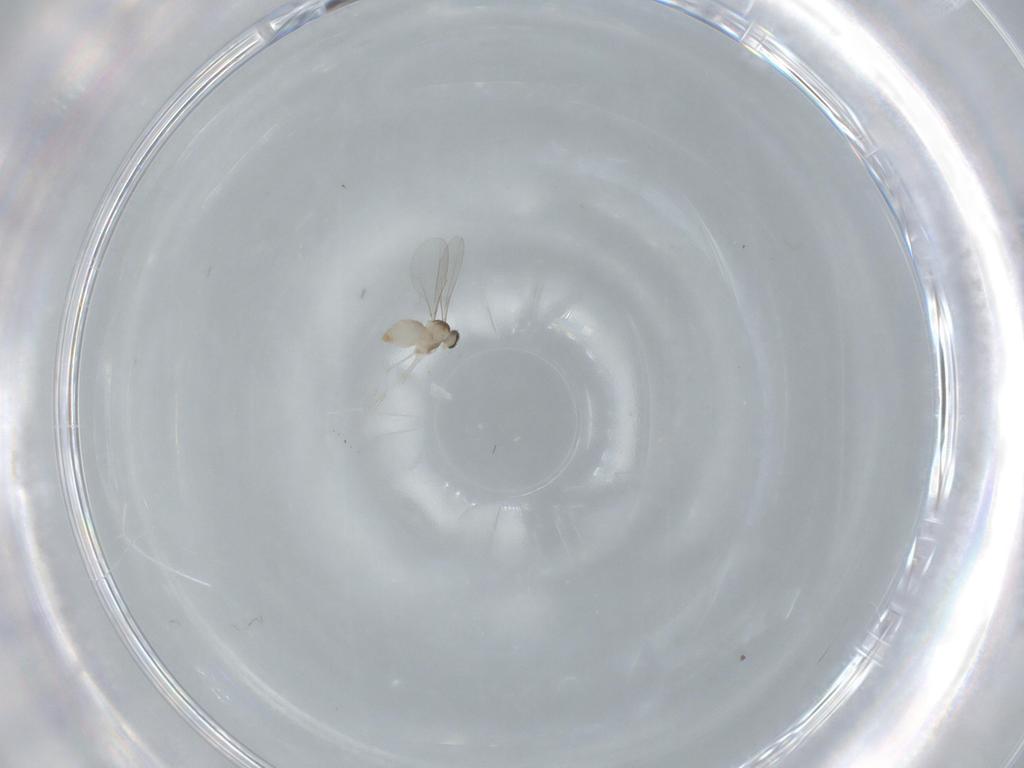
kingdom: Animalia
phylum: Arthropoda
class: Insecta
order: Diptera
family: Sciaridae
